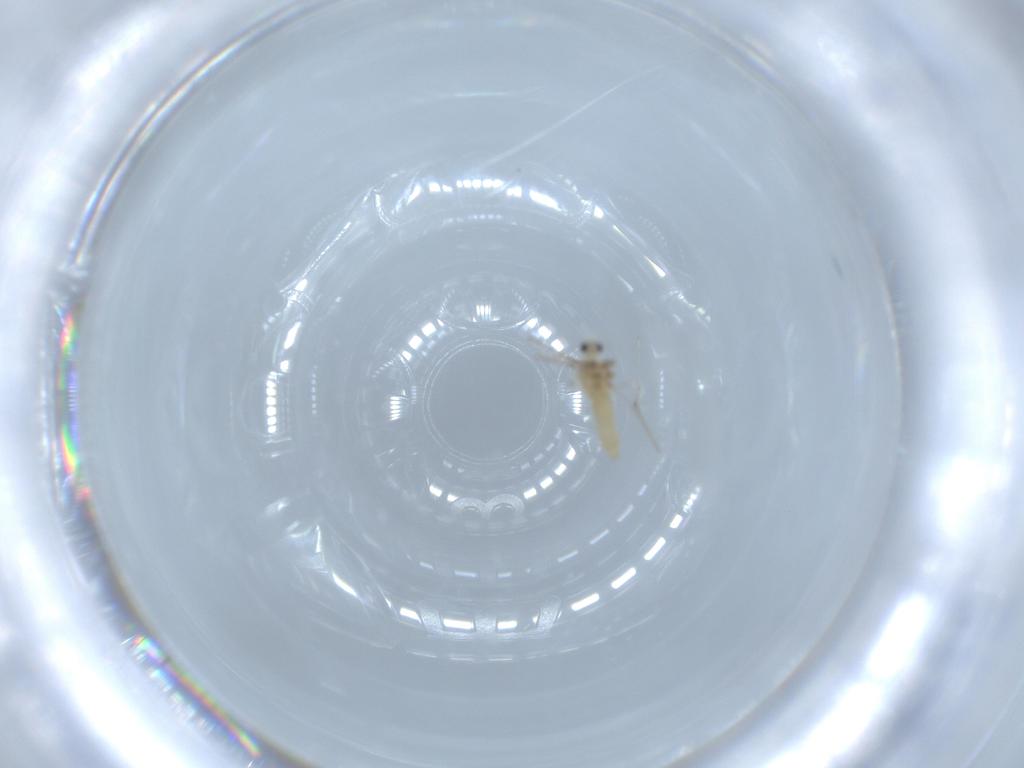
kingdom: Animalia
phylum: Arthropoda
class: Insecta
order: Diptera
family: Cecidomyiidae
